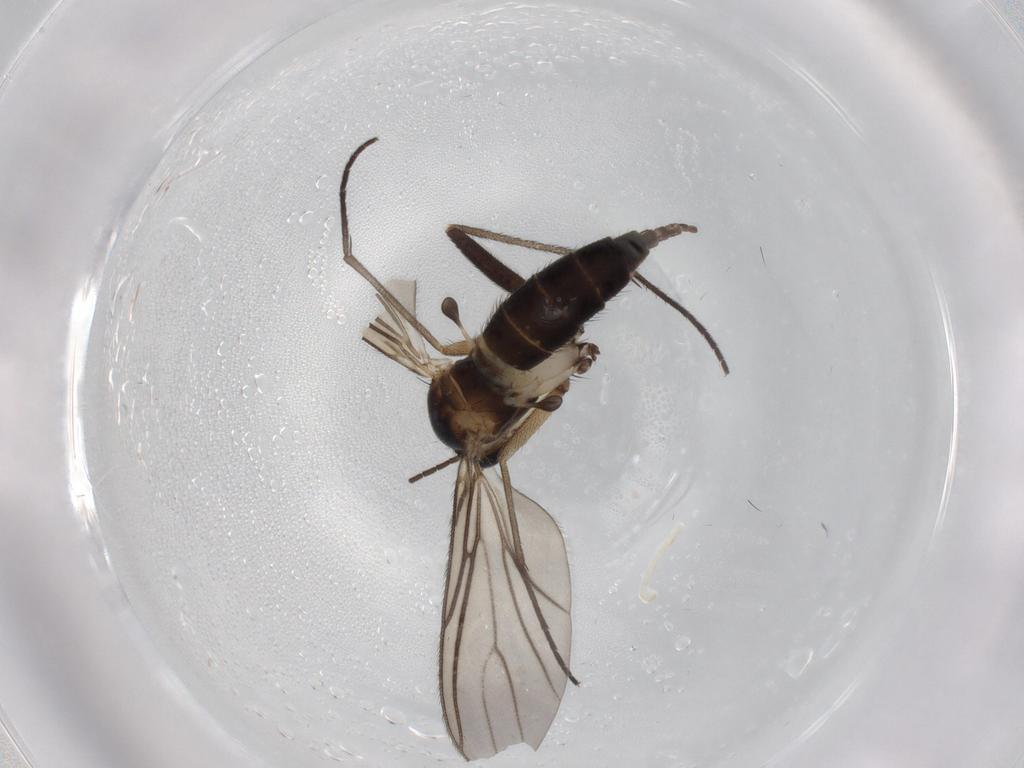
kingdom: Animalia
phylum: Arthropoda
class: Insecta
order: Diptera
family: Sciaridae
